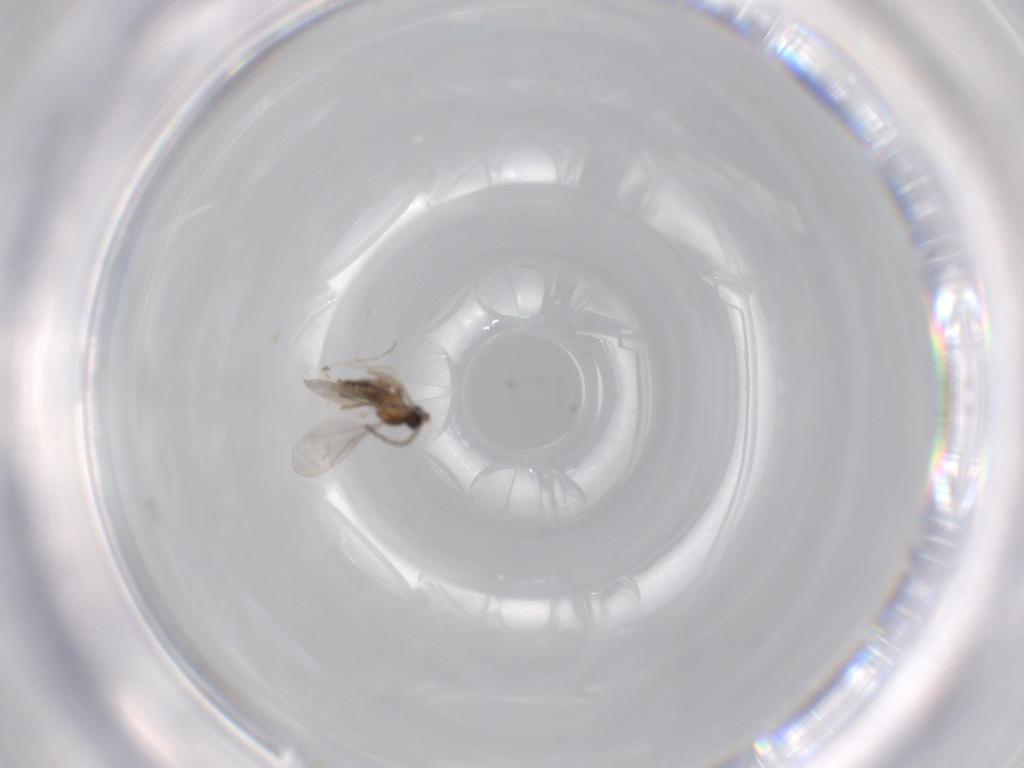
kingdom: Animalia
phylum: Arthropoda
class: Insecta
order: Diptera
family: Cecidomyiidae
